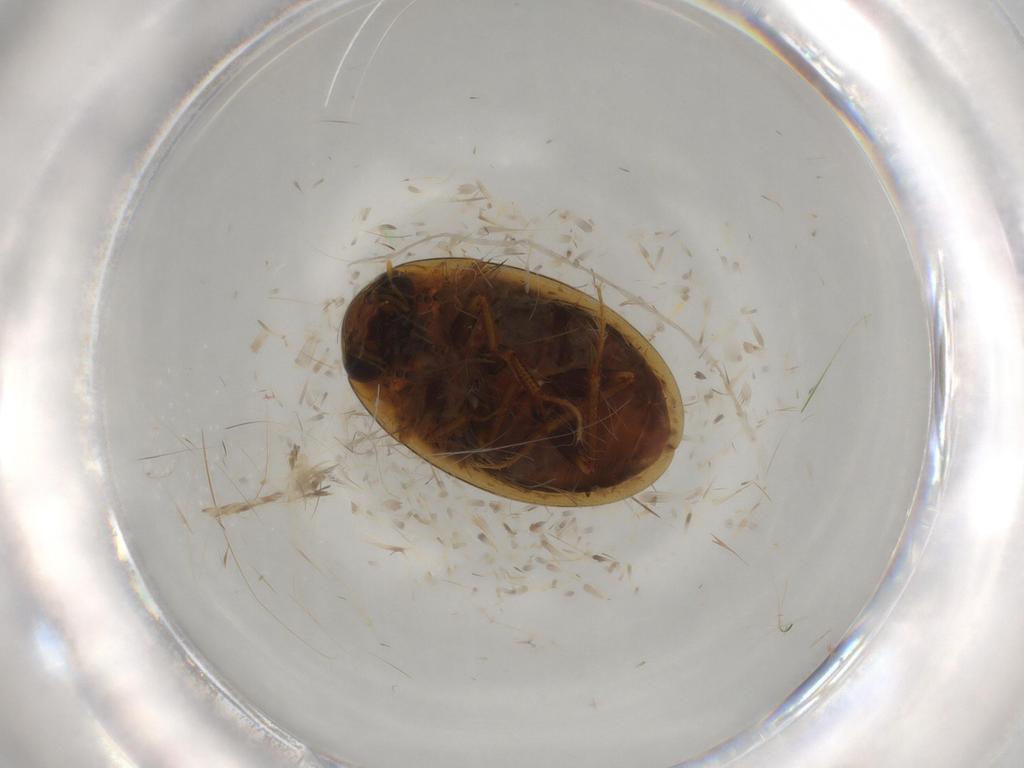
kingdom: Animalia
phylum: Arthropoda
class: Insecta
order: Coleoptera
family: Hydrophilidae
